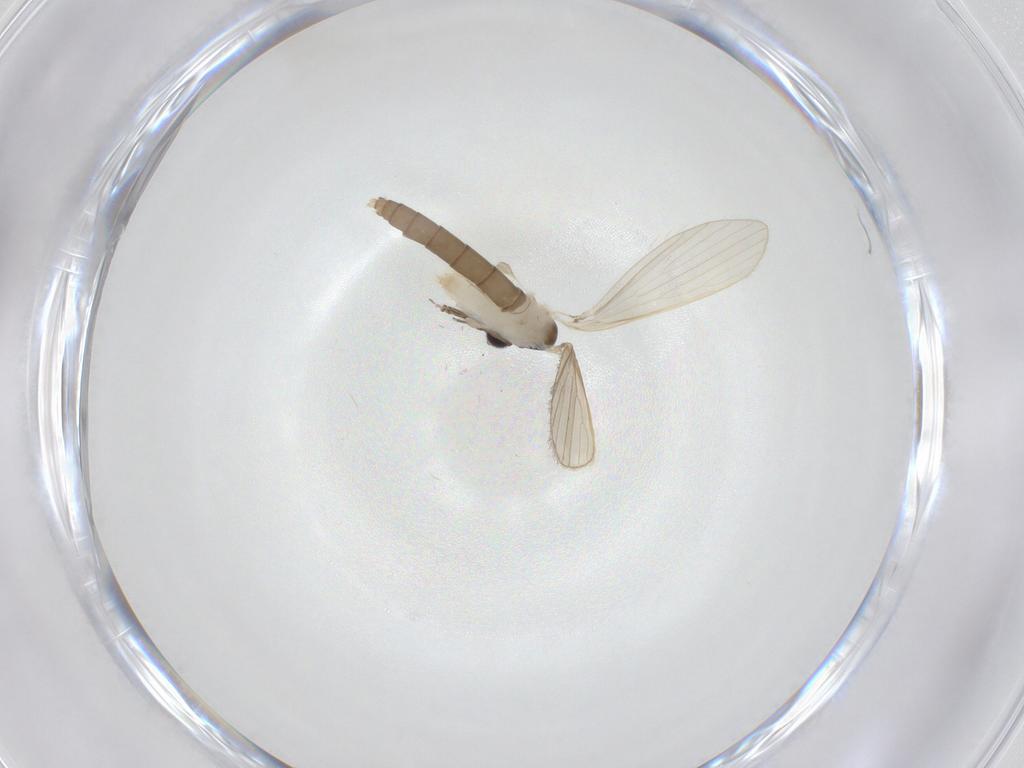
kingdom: Animalia
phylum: Arthropoda
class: Insecta
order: Diptera
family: Psychodidae
